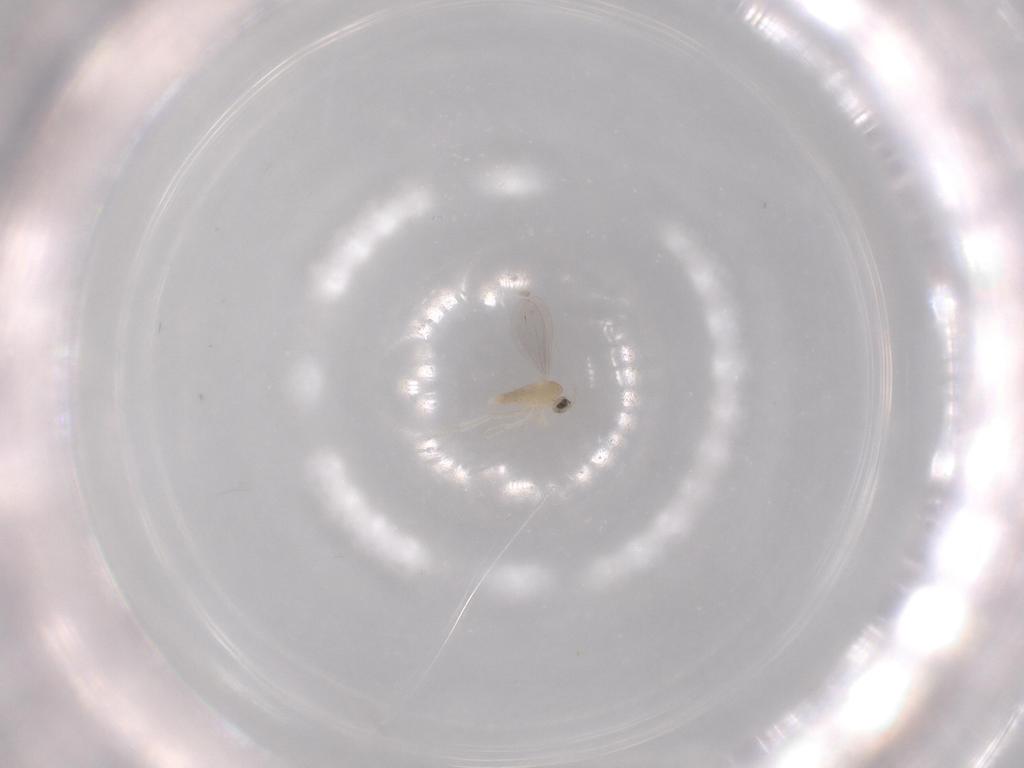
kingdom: Animalia
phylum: Arthropoda
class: Insecta
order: Diptera
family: Cecidomyiidae
